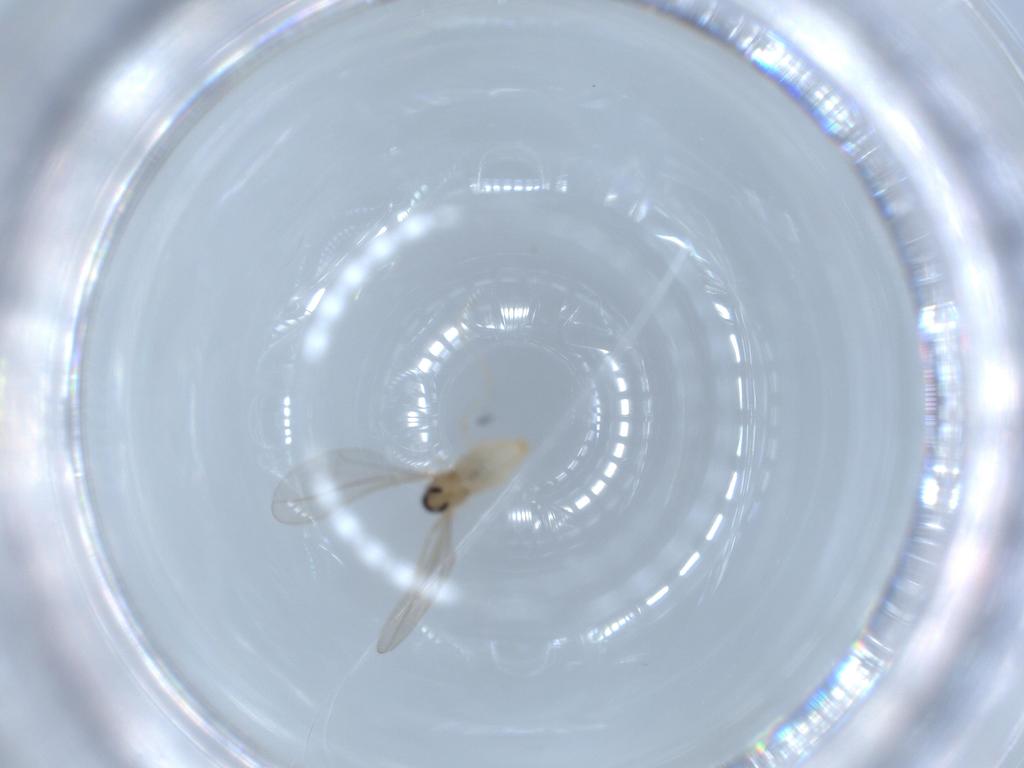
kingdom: Animalia
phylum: Arthropoda
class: Insecta
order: Diptera
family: Cecidomyiidae
